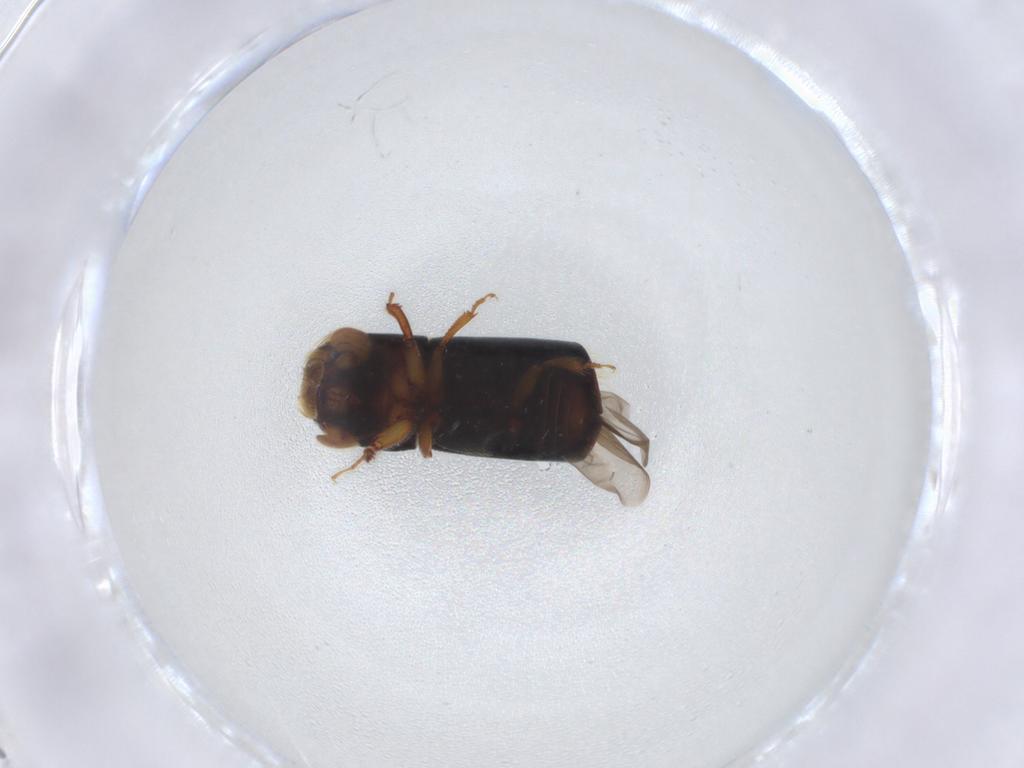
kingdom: Animalia
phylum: Arthropoda
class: Insecta
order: Coleoptera
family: Curculionidae
